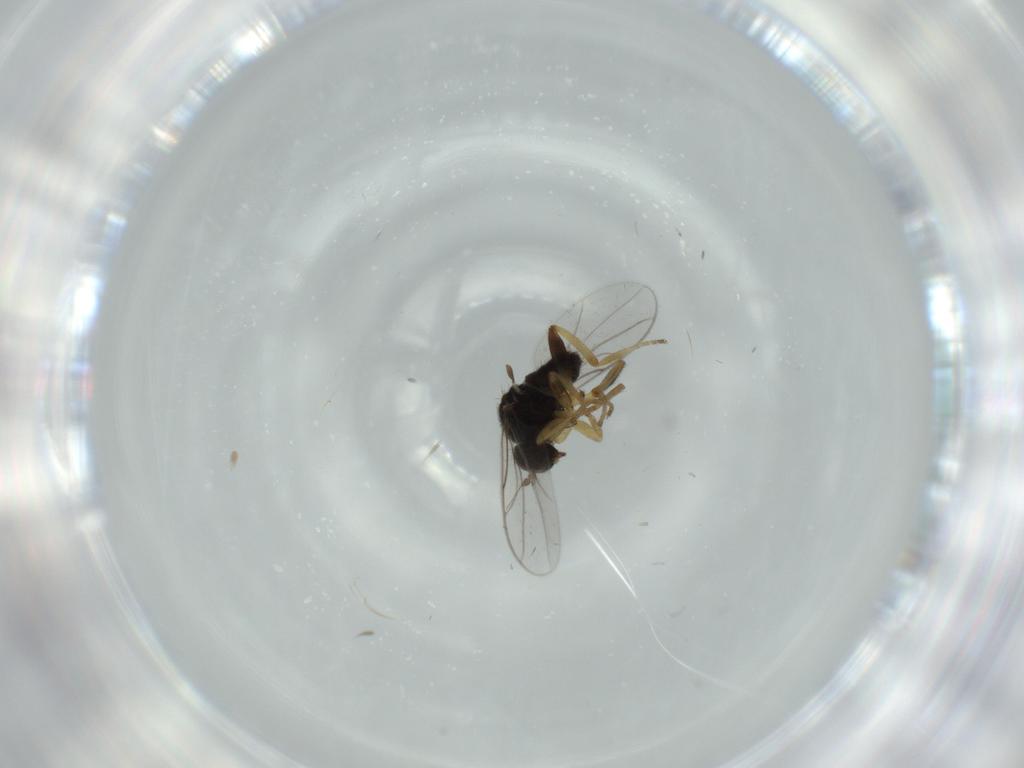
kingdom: Animalia
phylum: Arthropoda
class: Insecta
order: Diptera
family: Hybotidae
